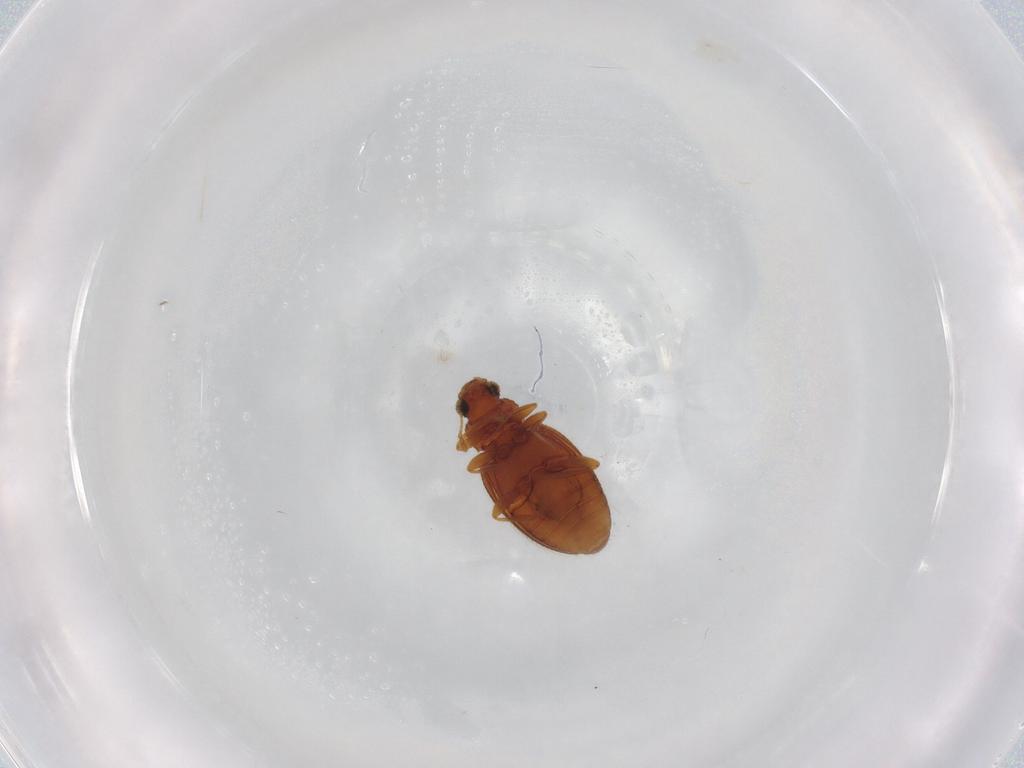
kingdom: Animalia
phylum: Arthropoda
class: Insecta
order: Coleoptera
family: Latridiidae
